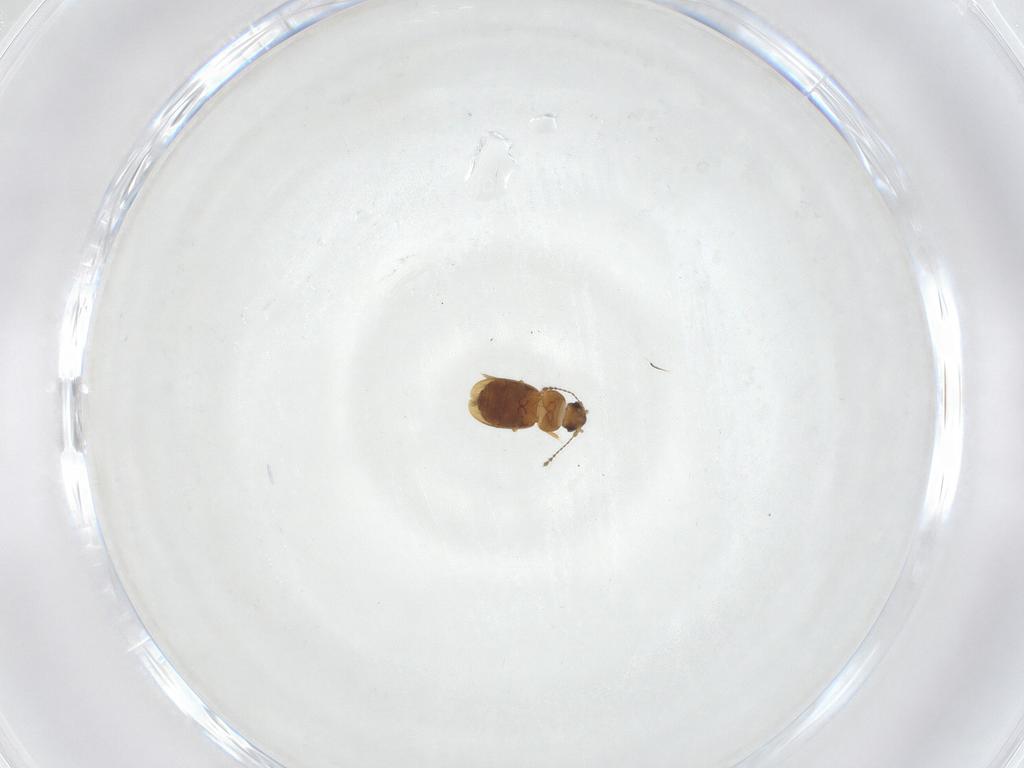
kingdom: Animalia
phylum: Arthropoda
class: Insecta
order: Coleoptera
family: Ptiliidae
